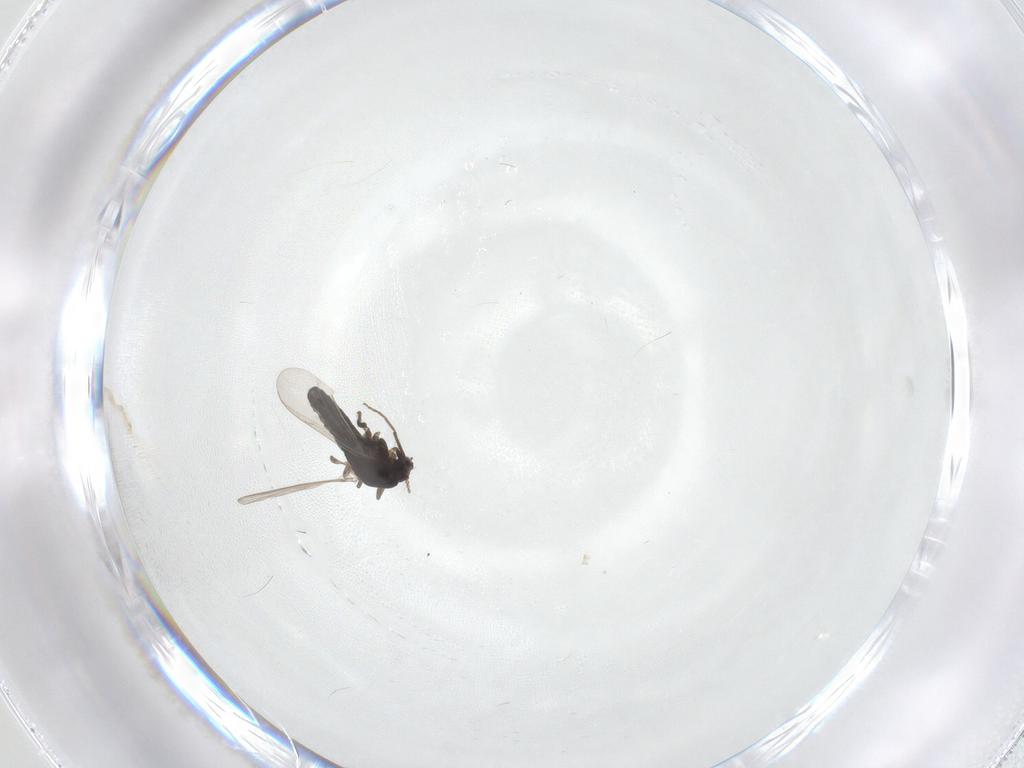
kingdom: Animalia
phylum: Arthropoda
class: Insecta
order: Diptera
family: Chironomidae
